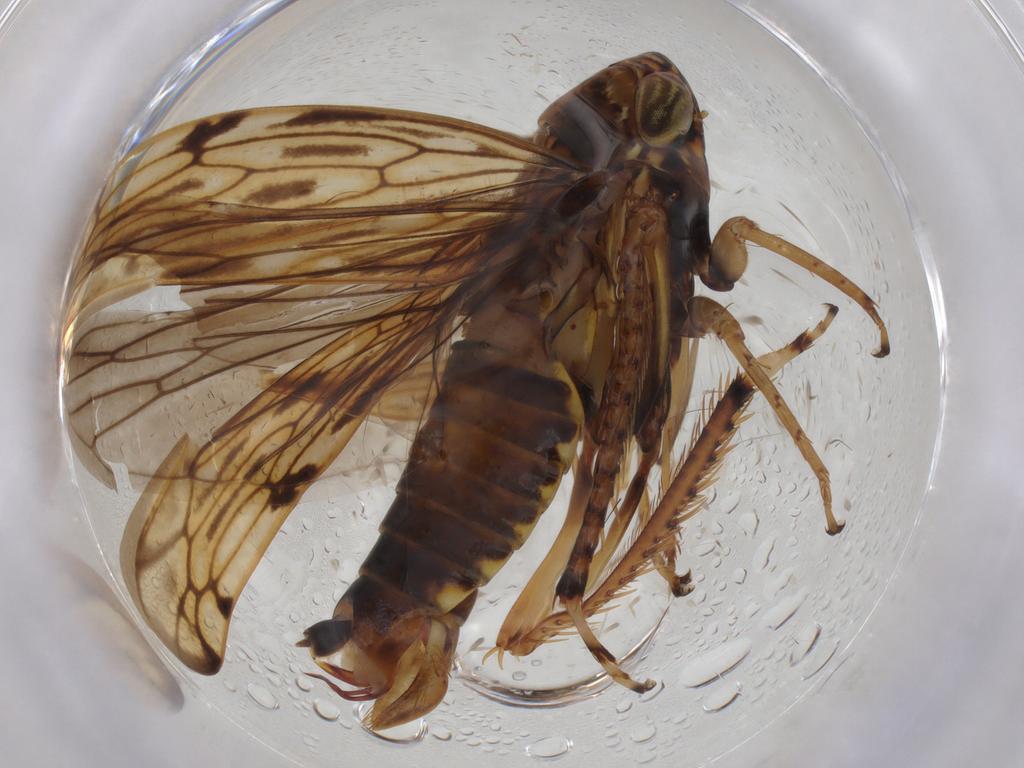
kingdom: Animalia
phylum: Arthropoda
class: Insecta
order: Hemiptera
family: Cicadellidae
